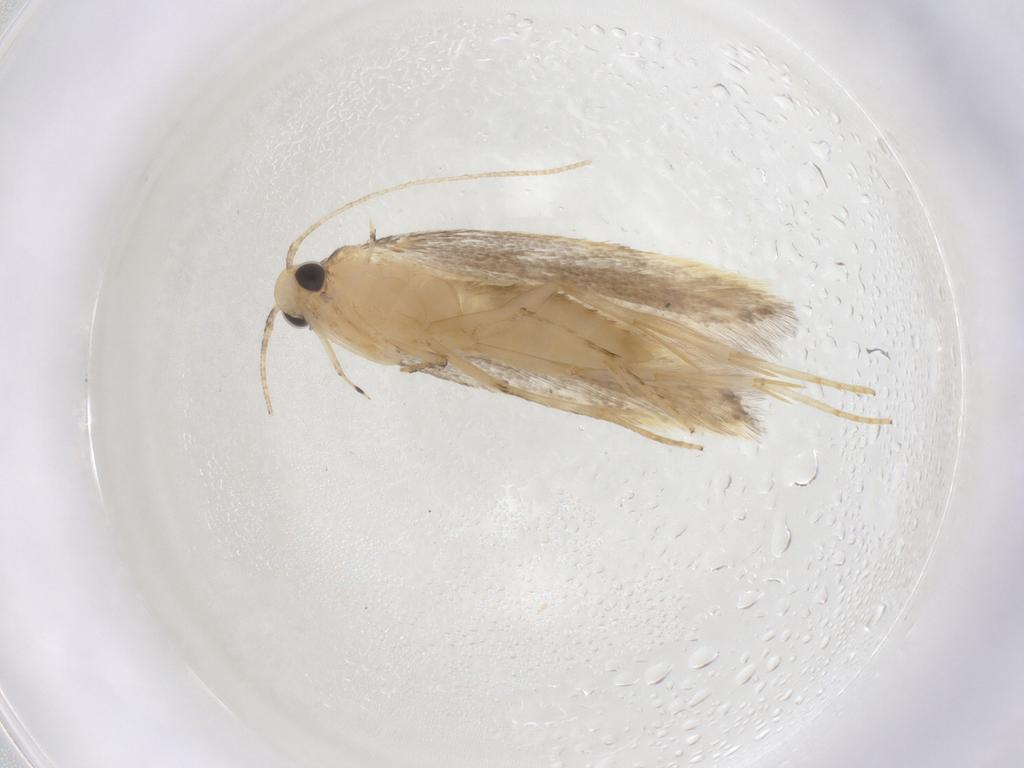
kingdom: Animalia
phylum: Arthropoda
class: Insecta
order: Lepidoptera
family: Autostichidae
